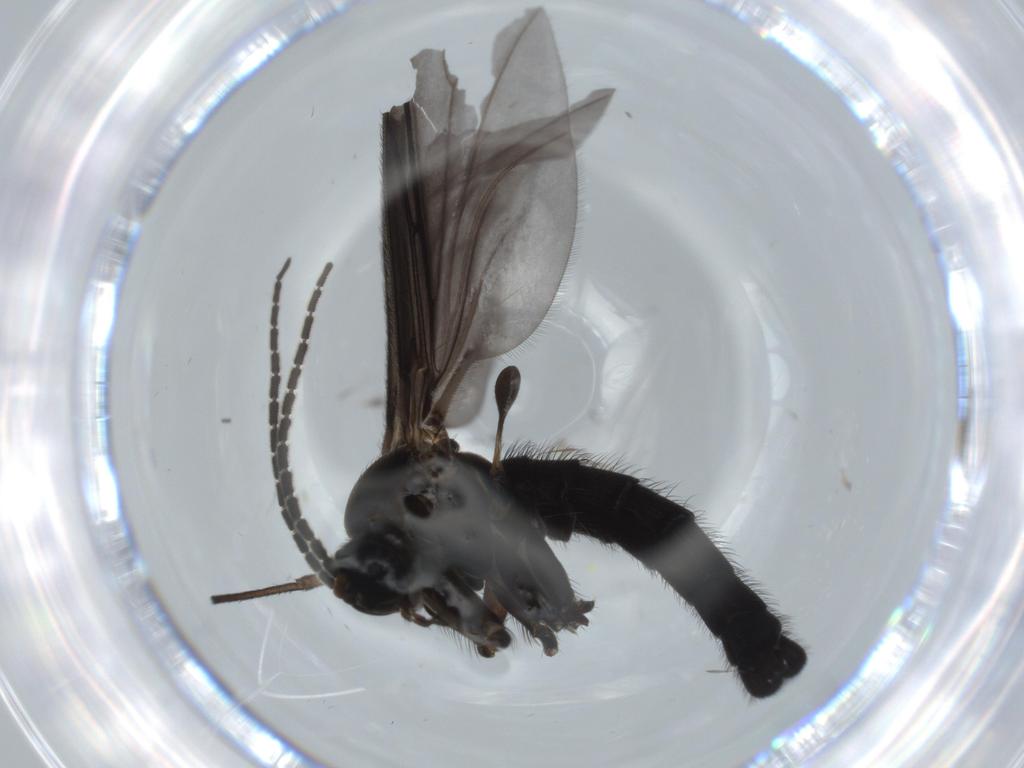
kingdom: Animalia
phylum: Arthropoda
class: Insecta
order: Diptera
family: Sciaridae
